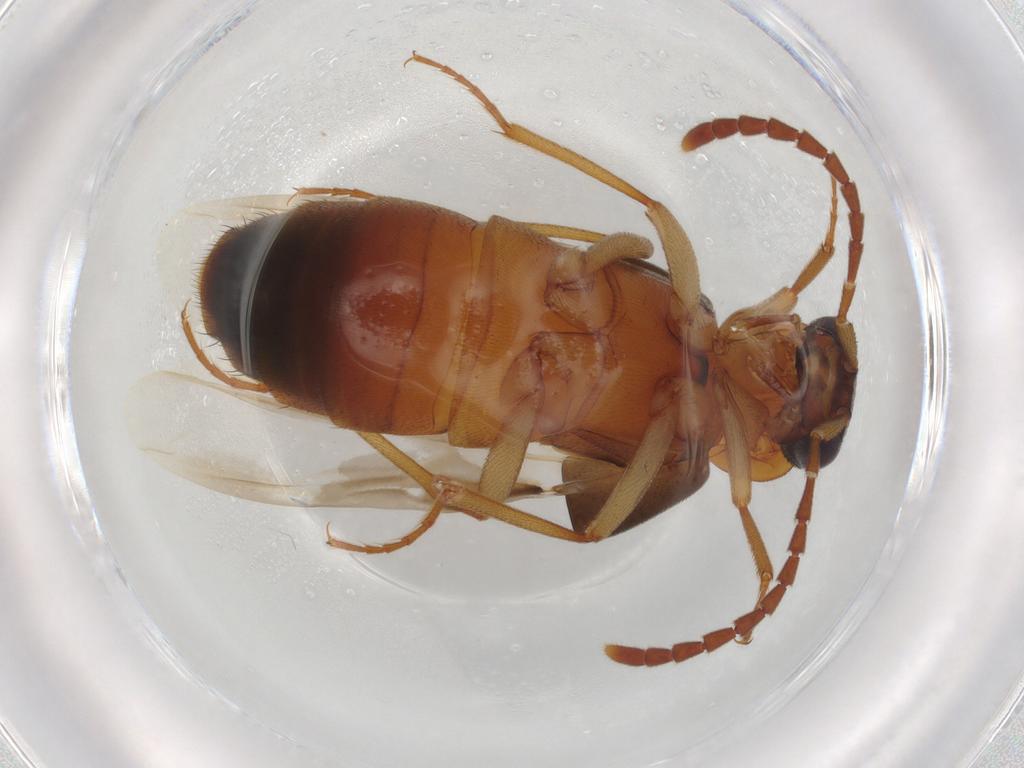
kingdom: Animalia
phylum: Arthropoda
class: Insecta
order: Coleoptera
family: Staphylinidae
